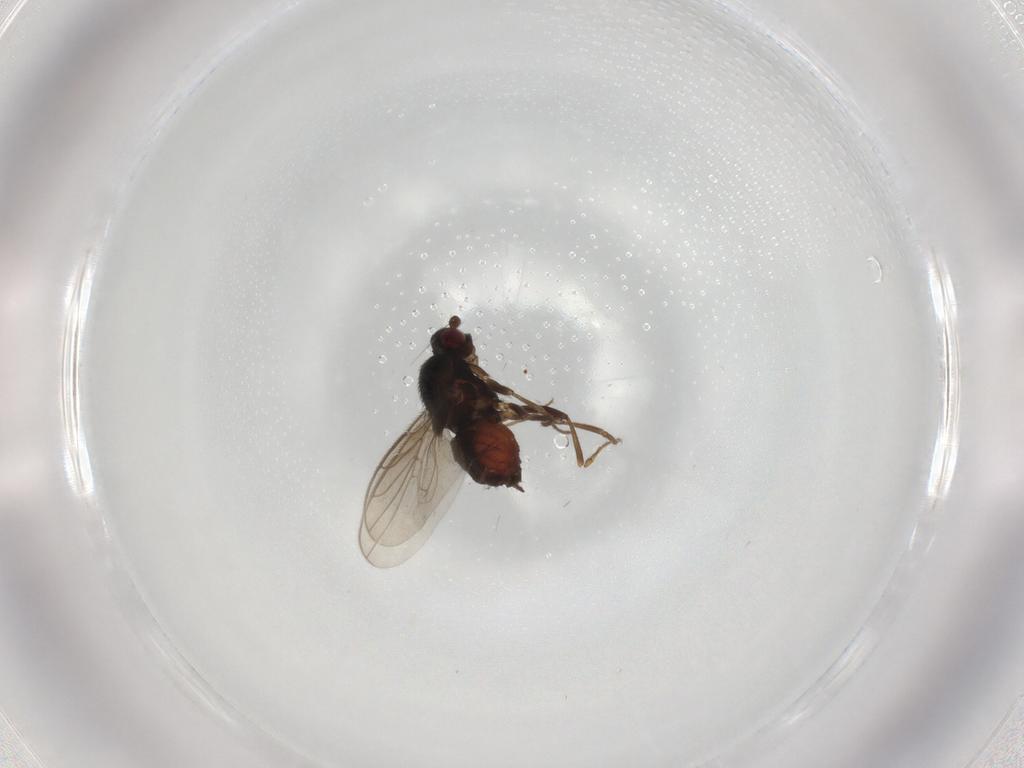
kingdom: Animalia
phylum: Arthropoda
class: Insecta
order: Diptera
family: Sphaeroceridae
